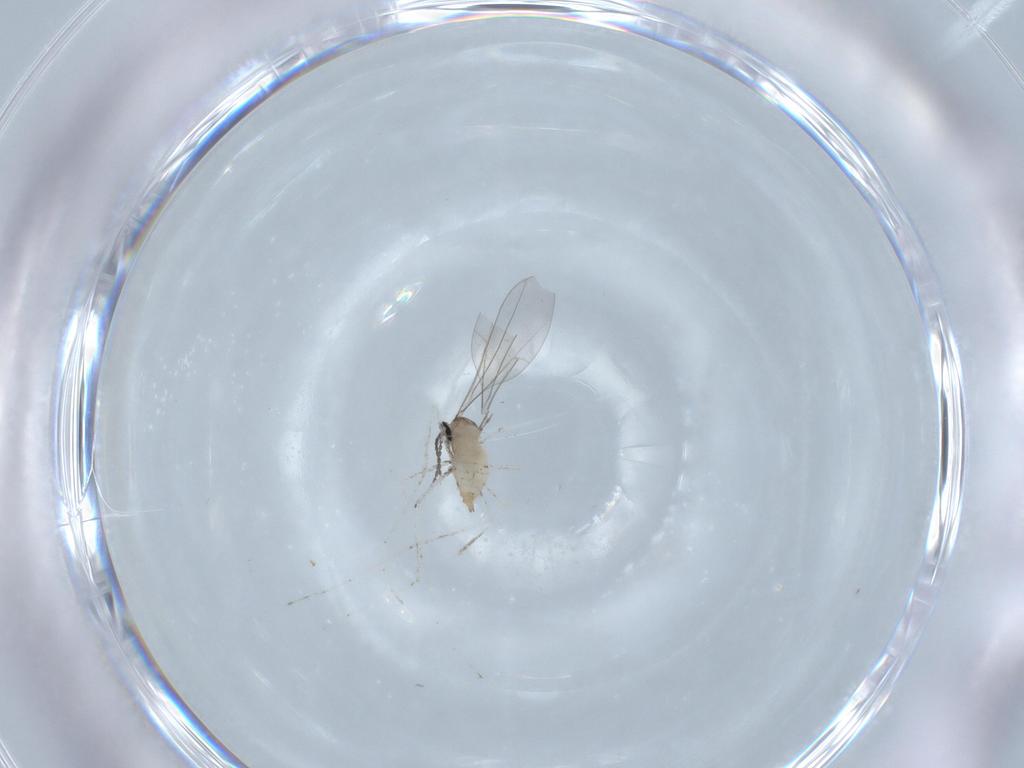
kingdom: Animalia
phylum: Arthropoda
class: Insecta
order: Diptera
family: Cecidomyiidae
